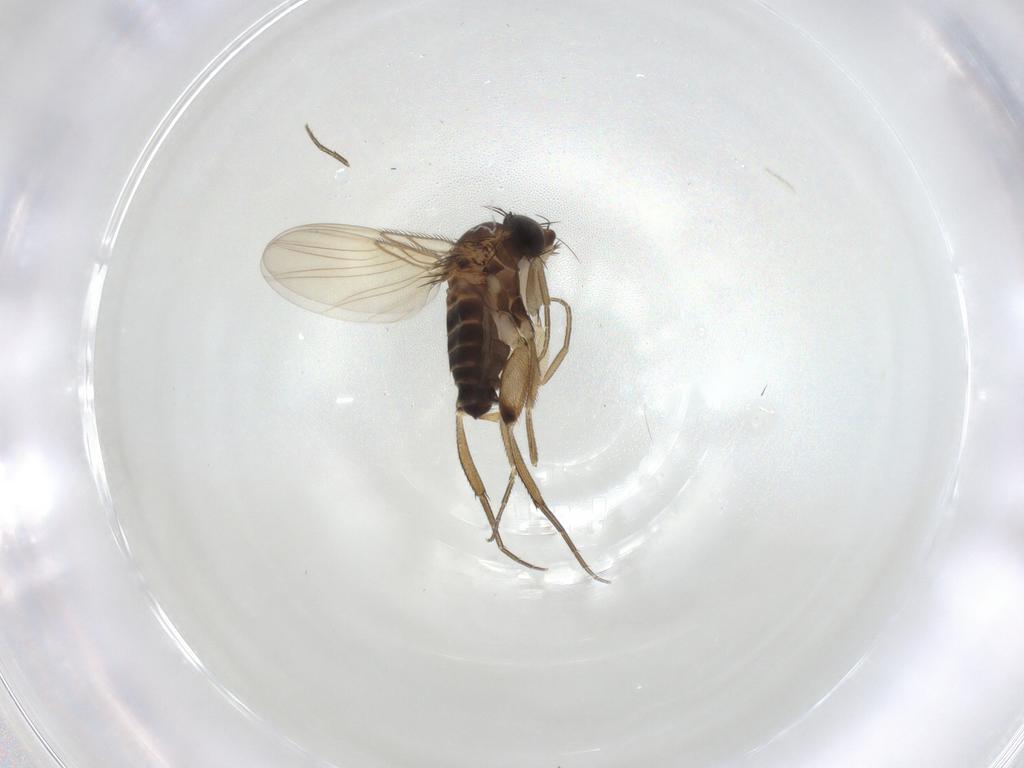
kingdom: Animalia
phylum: Arthropoda
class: Insecta
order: Diptera
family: Phoridae
